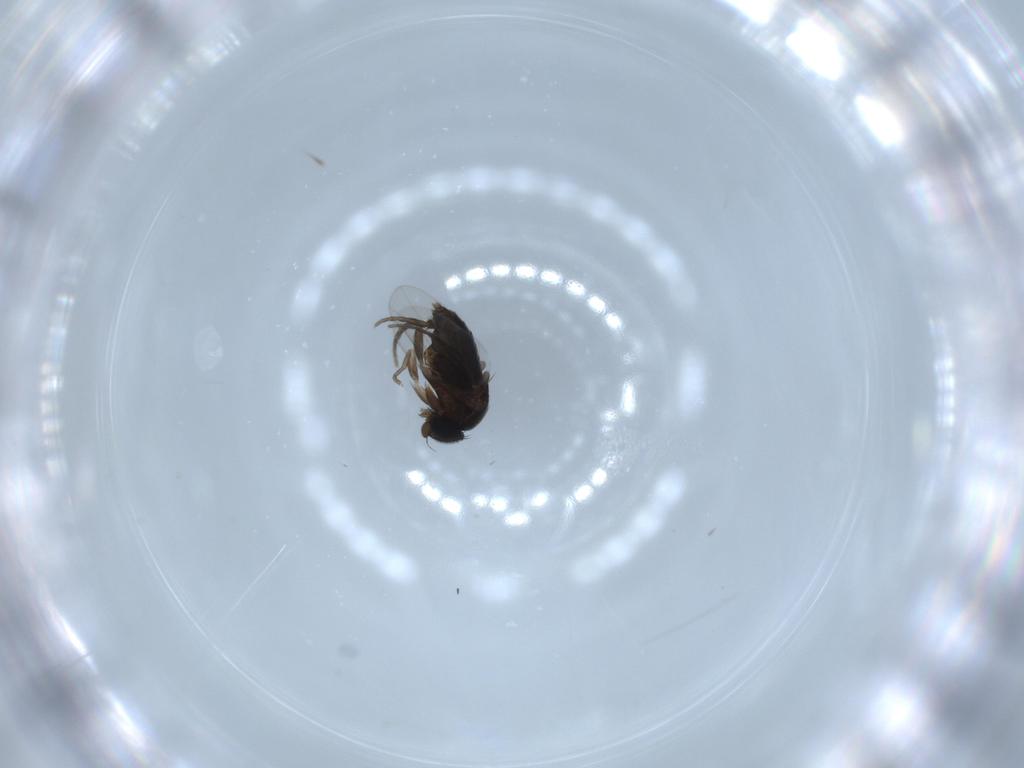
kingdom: Animalia
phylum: Arthropoda
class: Insecta
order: Diptera
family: Phoridae
